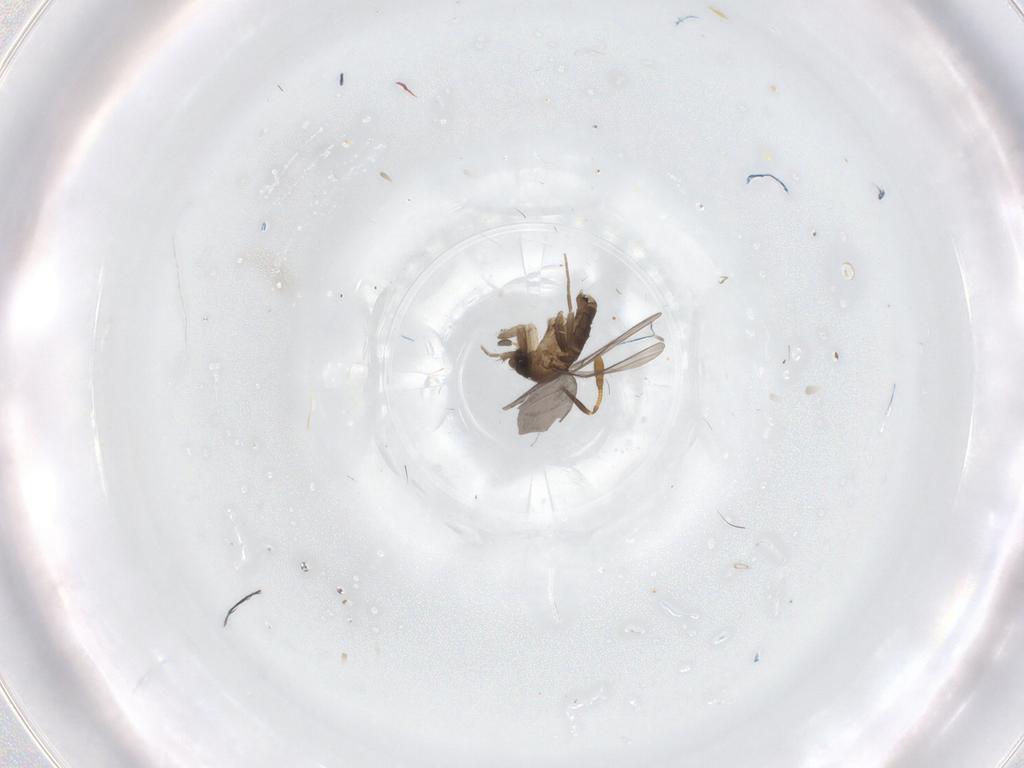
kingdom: Animalia
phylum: Arthropoda
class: Insecta
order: Diptera
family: Chironomidae
